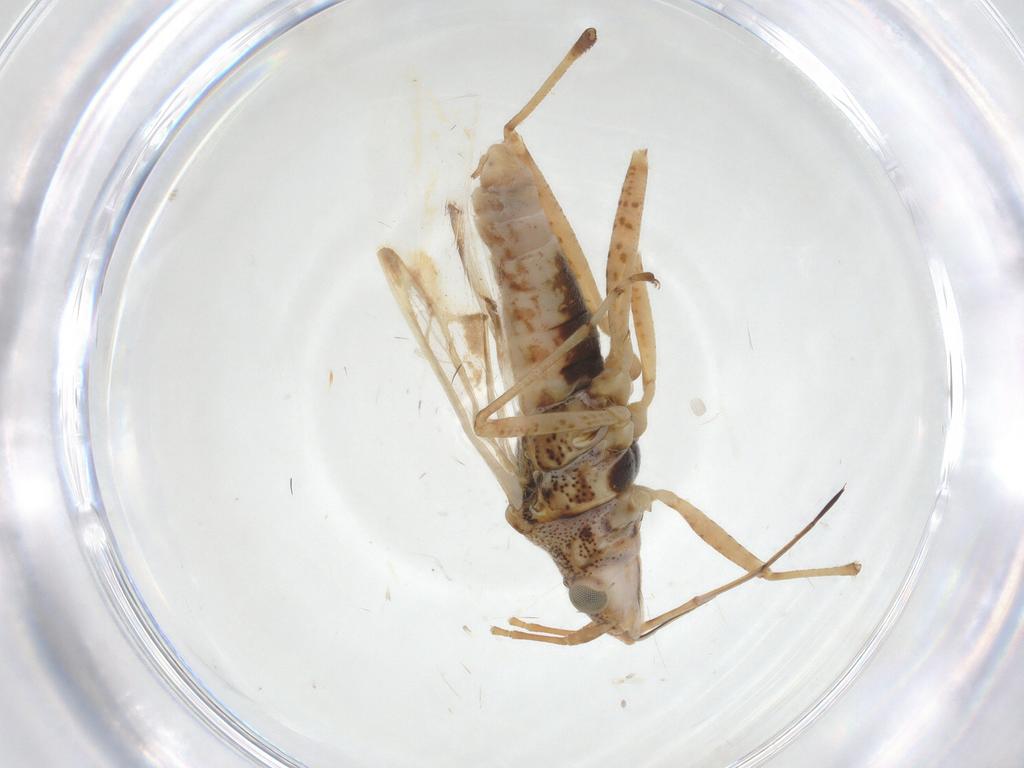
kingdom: Animalia
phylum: Arthropoda
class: Insecta
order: Hemiptera
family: Lygaeidae
